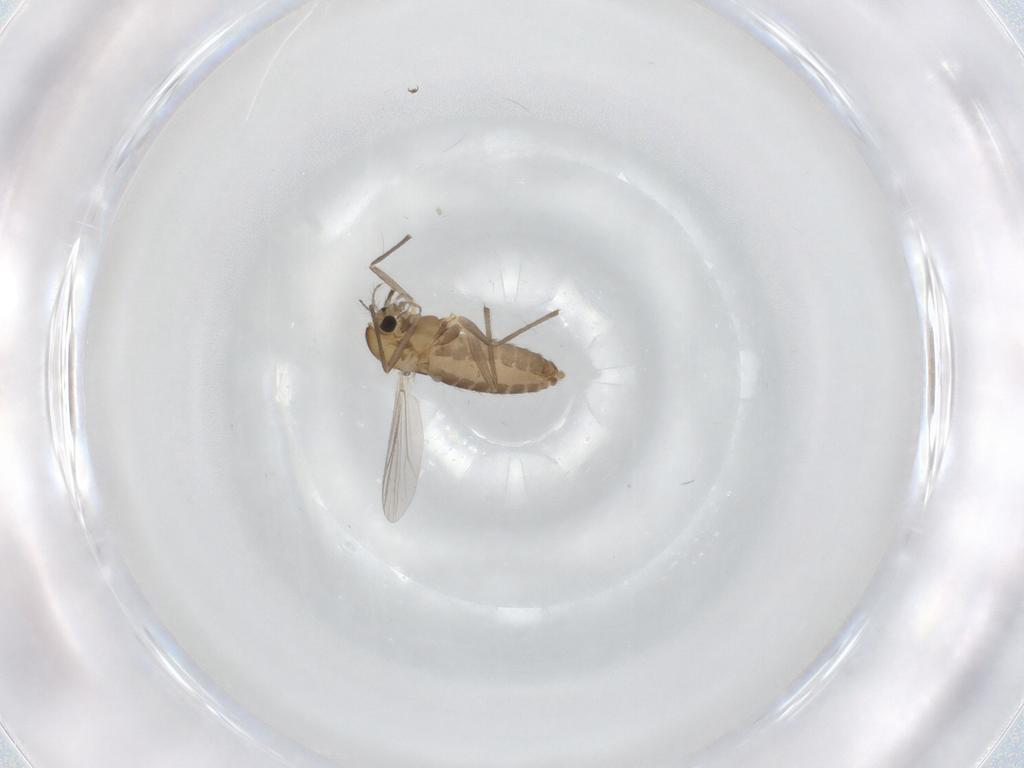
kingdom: Animalia
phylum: Arthropoda
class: Insecta
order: Diptera
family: Chironomidae
